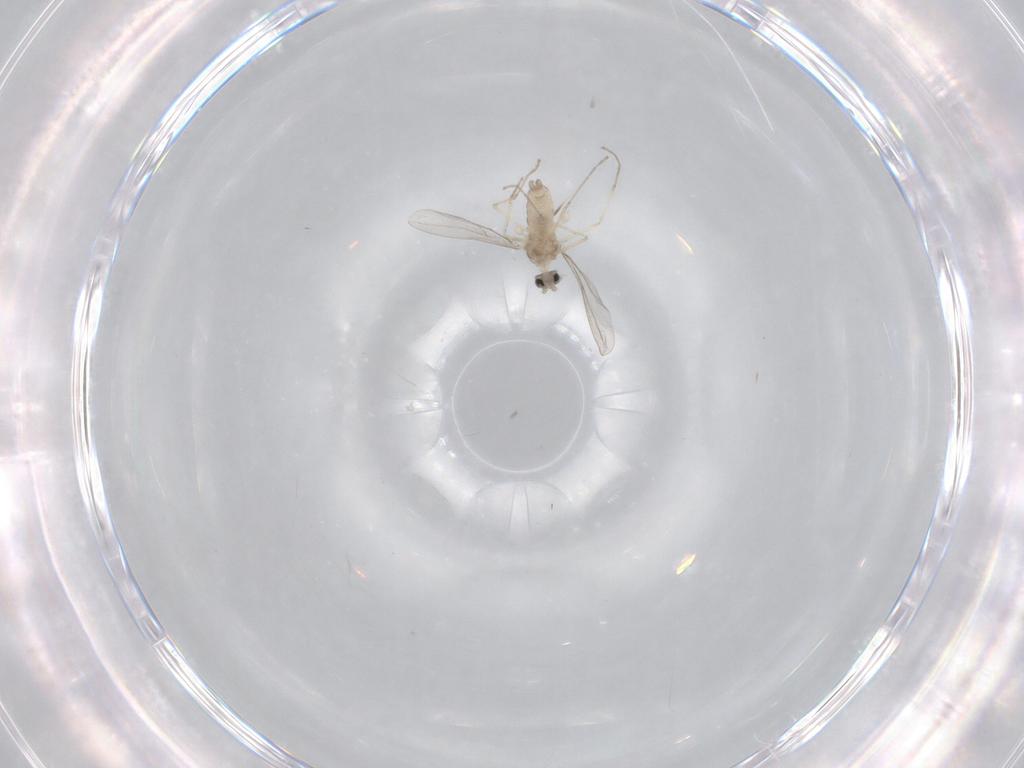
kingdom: Animalia
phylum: Arthropoda
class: Insecta
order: Diptera
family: Cecidomyiidae
